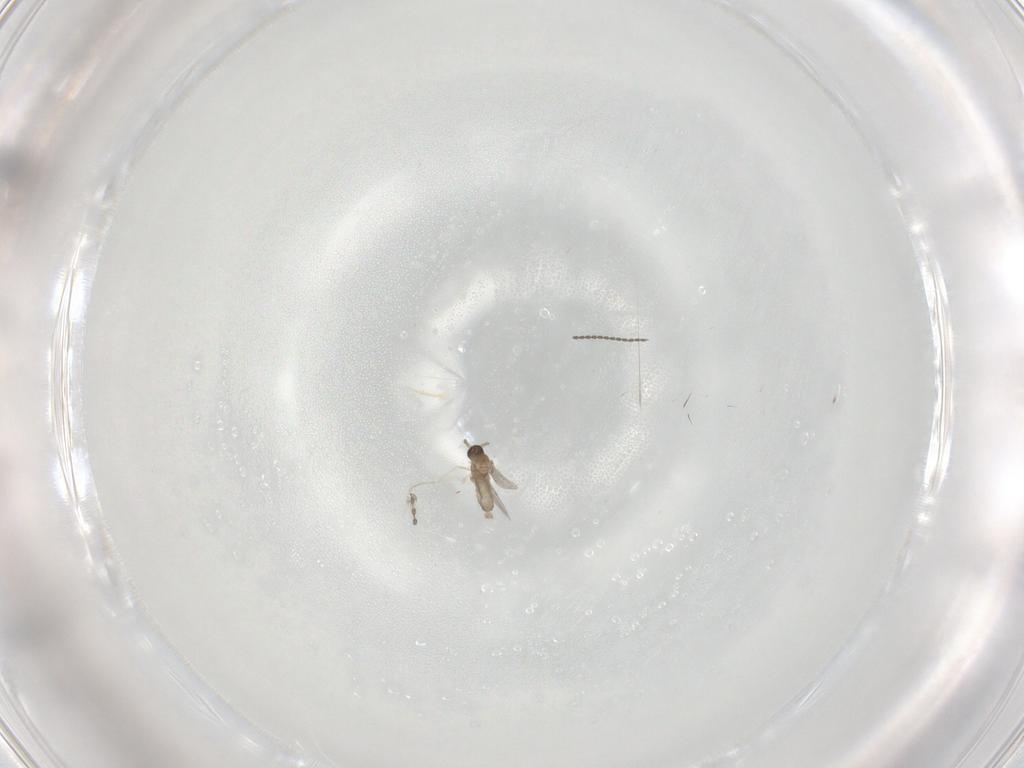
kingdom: Animalia
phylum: Arthropoda
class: Insecta
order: Diptera
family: Cecidomyiidae
